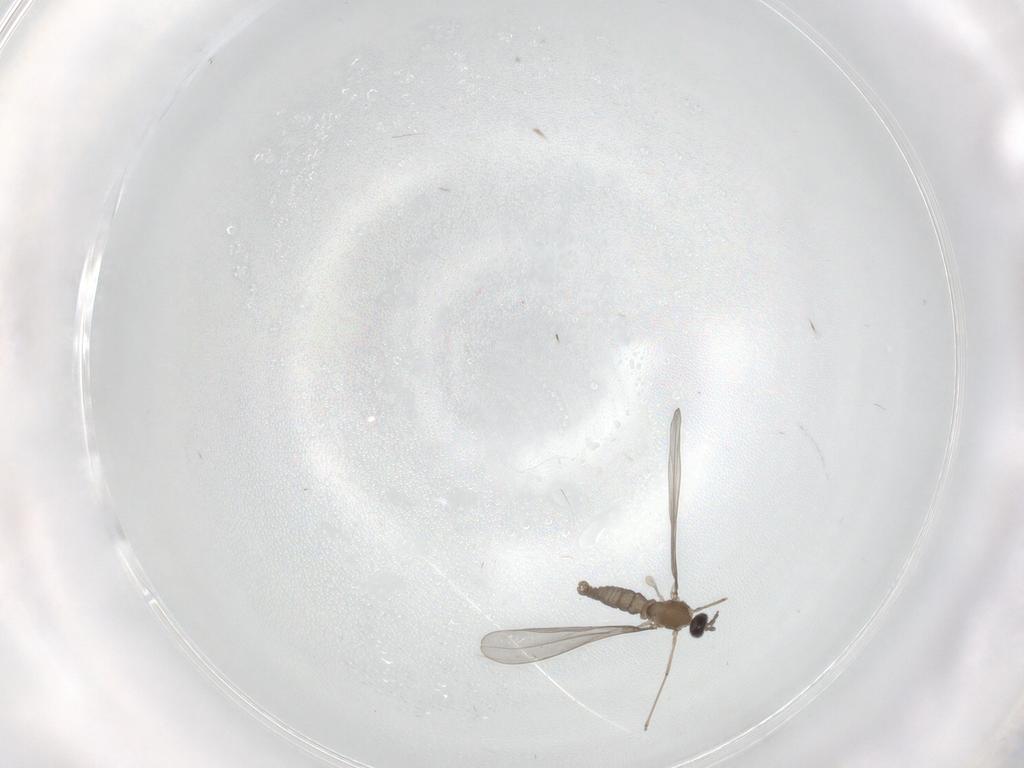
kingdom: Animalia
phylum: Arthropoda
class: Insecta
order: Diptera
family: Cecidomyiidae
